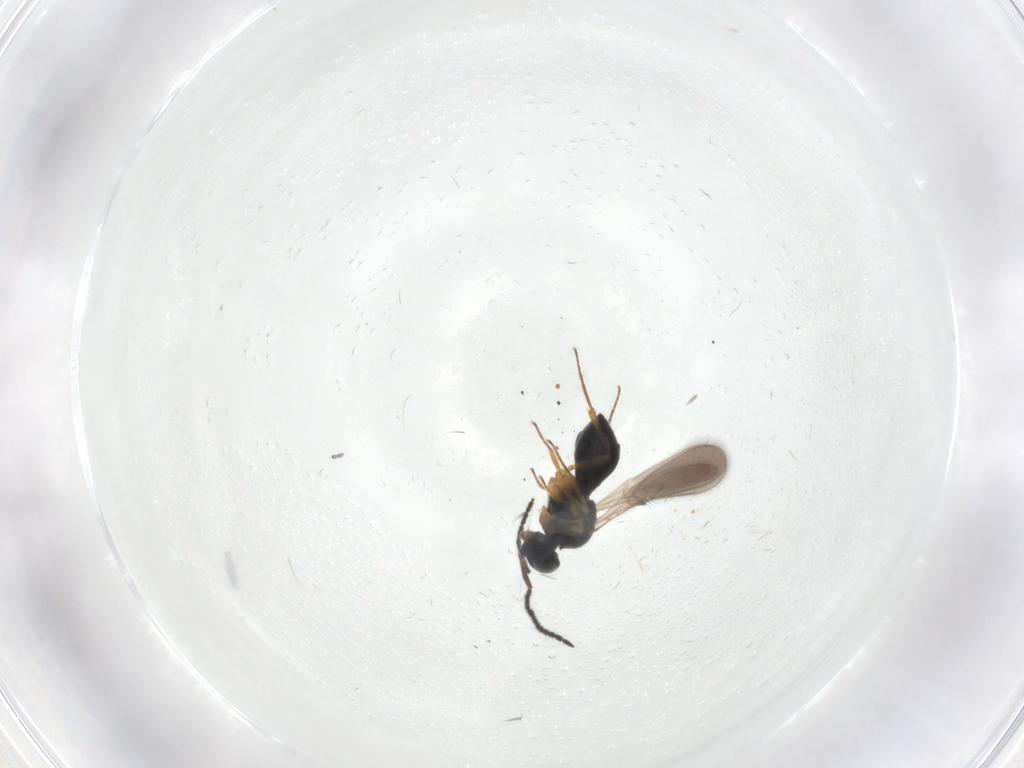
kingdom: Animalia
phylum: Arthropoda
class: Insecta
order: Hymenoptera
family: Scelionidae
